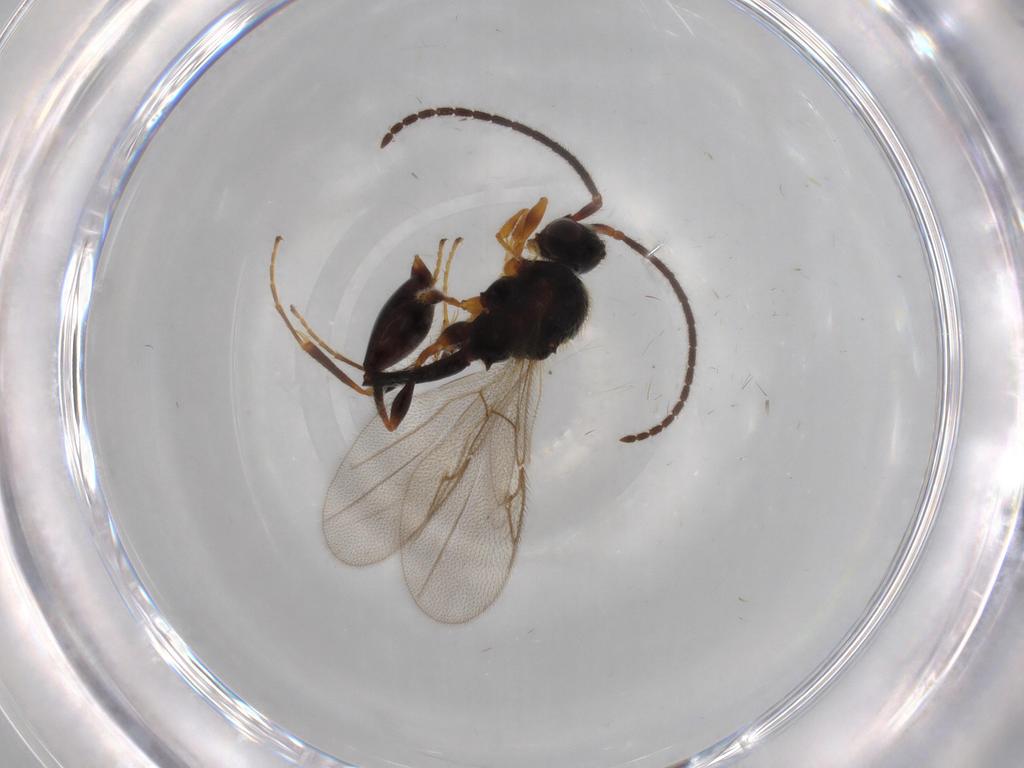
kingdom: Animalia
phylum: Arthropoda
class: Insecta
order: Hymenoptera
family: Diapriidae
